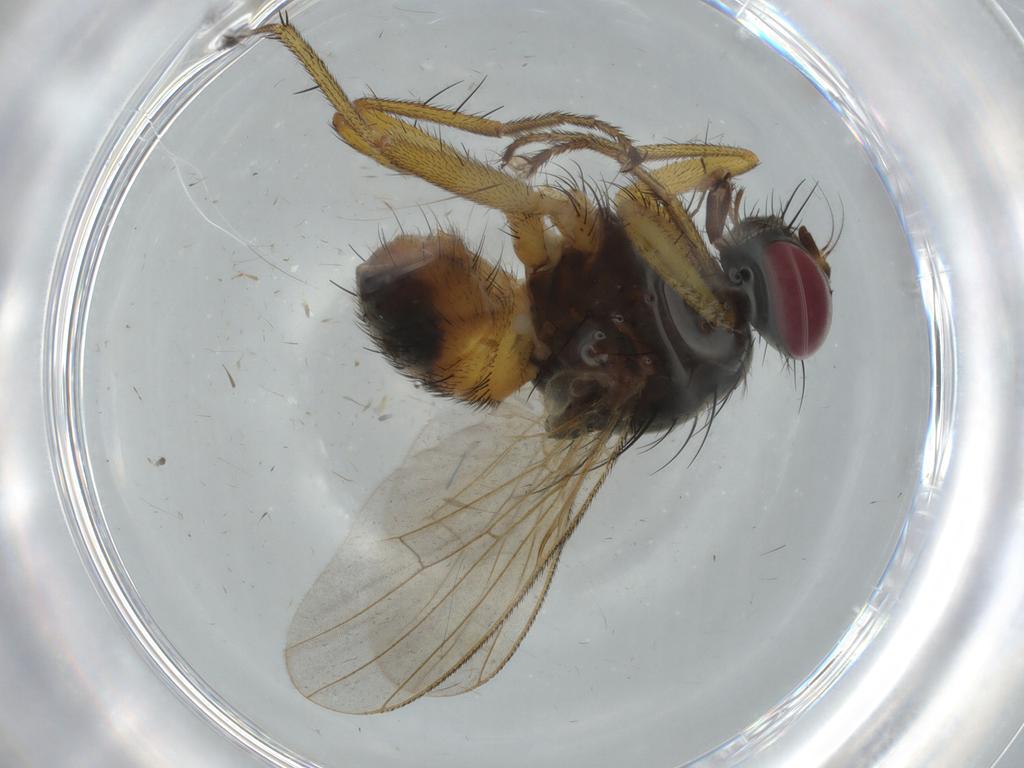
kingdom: Animalia
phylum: Arthropoda
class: Insecta
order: Diptera
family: Muscidae
